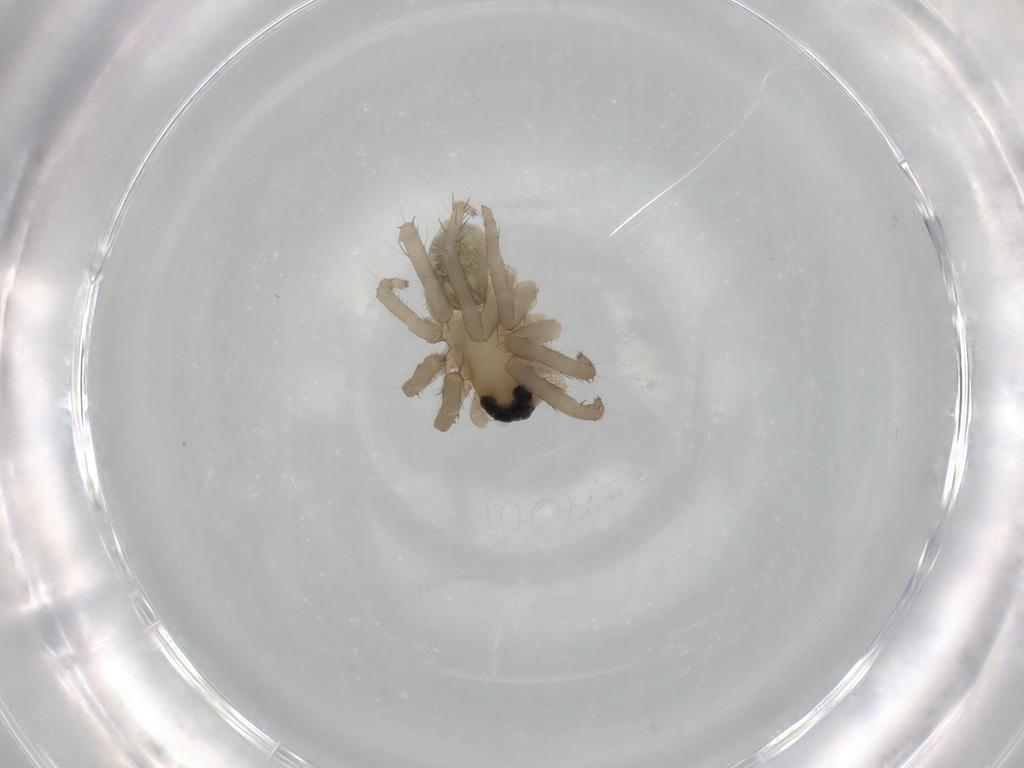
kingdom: Animalia
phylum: Arthropoda
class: Arachnida
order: Araneae
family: Lycosidae
